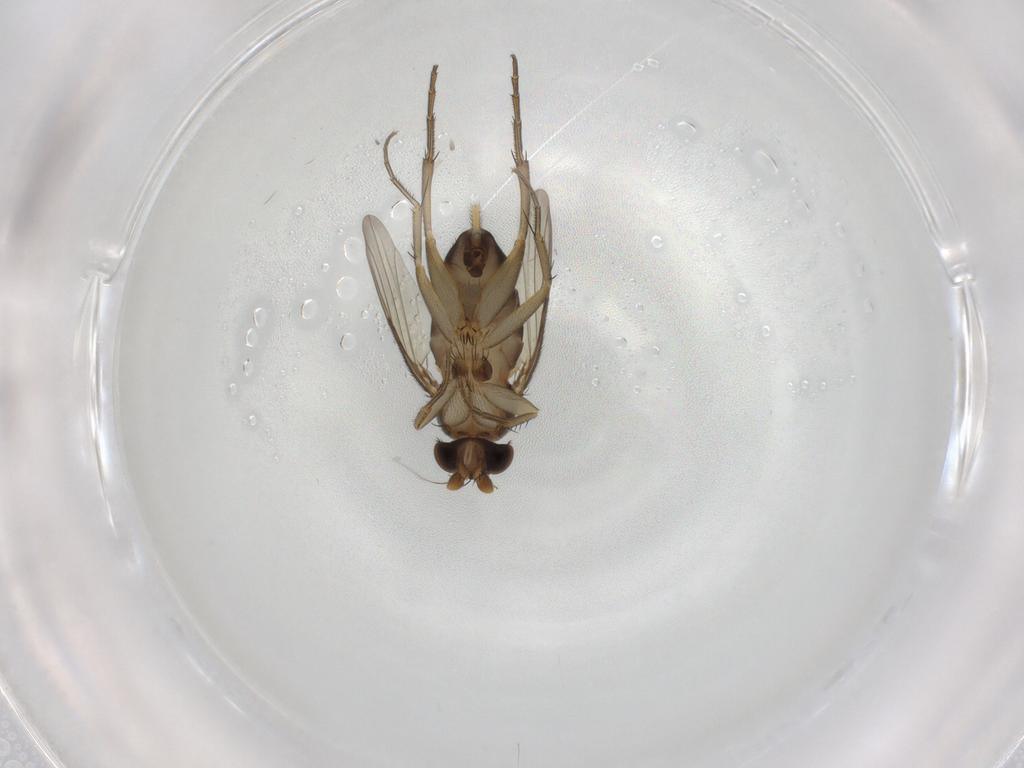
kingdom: Animalia
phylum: Arthropoda
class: Insecta
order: Diptera
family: Phoridae
